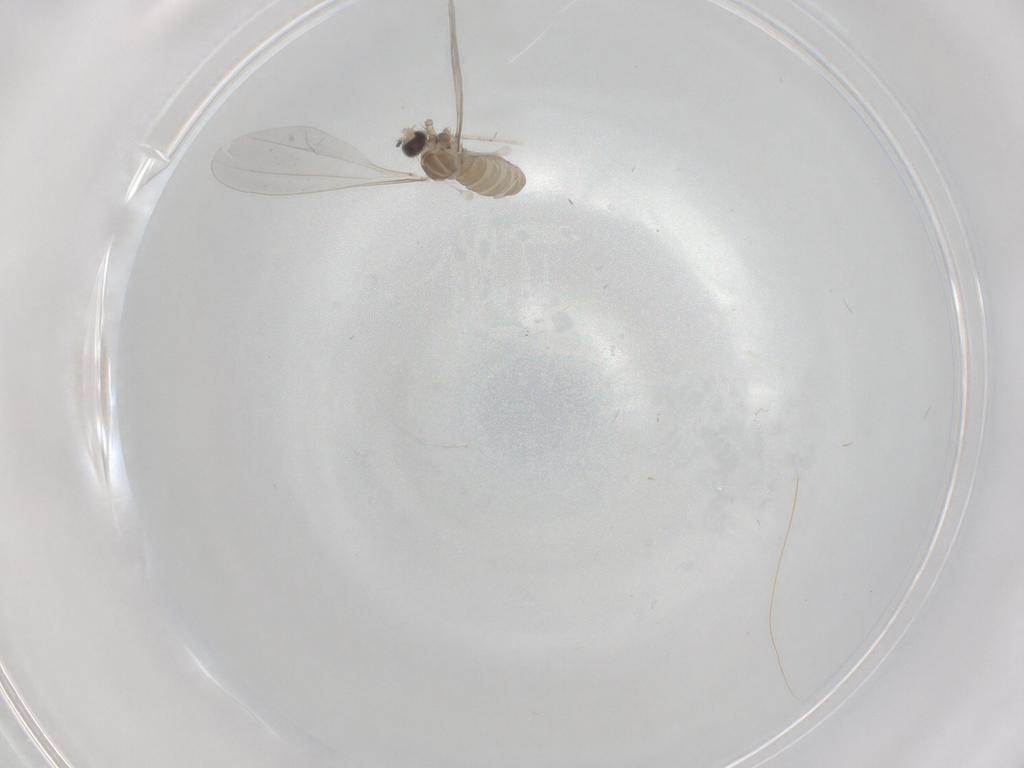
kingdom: Animalia
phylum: Arthropoda
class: Insecta
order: Diptera
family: Cecidomyiidae
